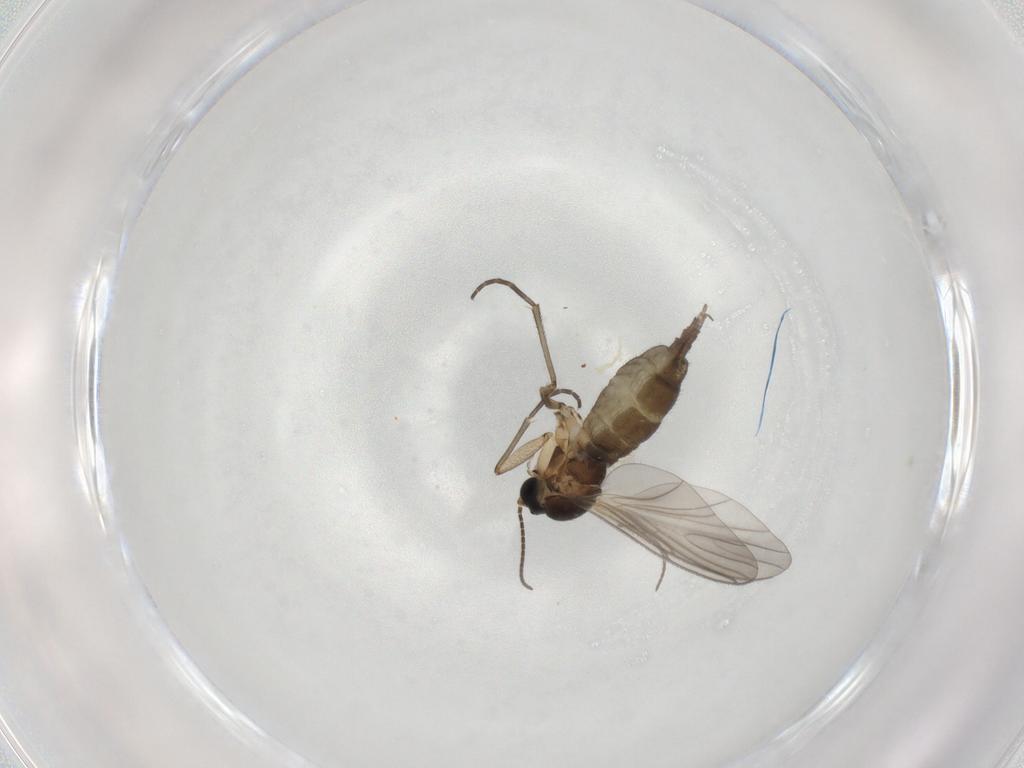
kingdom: Animalia
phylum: Arthropoda
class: Insecta
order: Diptera
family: Sciaridae
